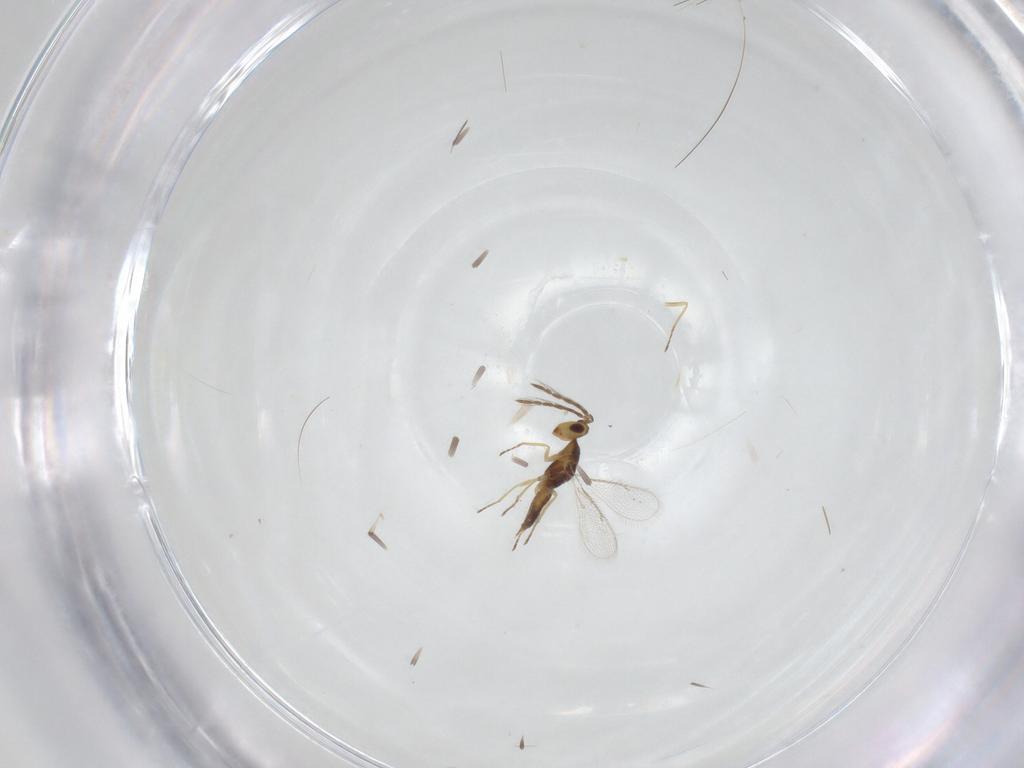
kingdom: Animalia
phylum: Arthropoda
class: Insecta
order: Hymenoptera
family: Eulophidae
